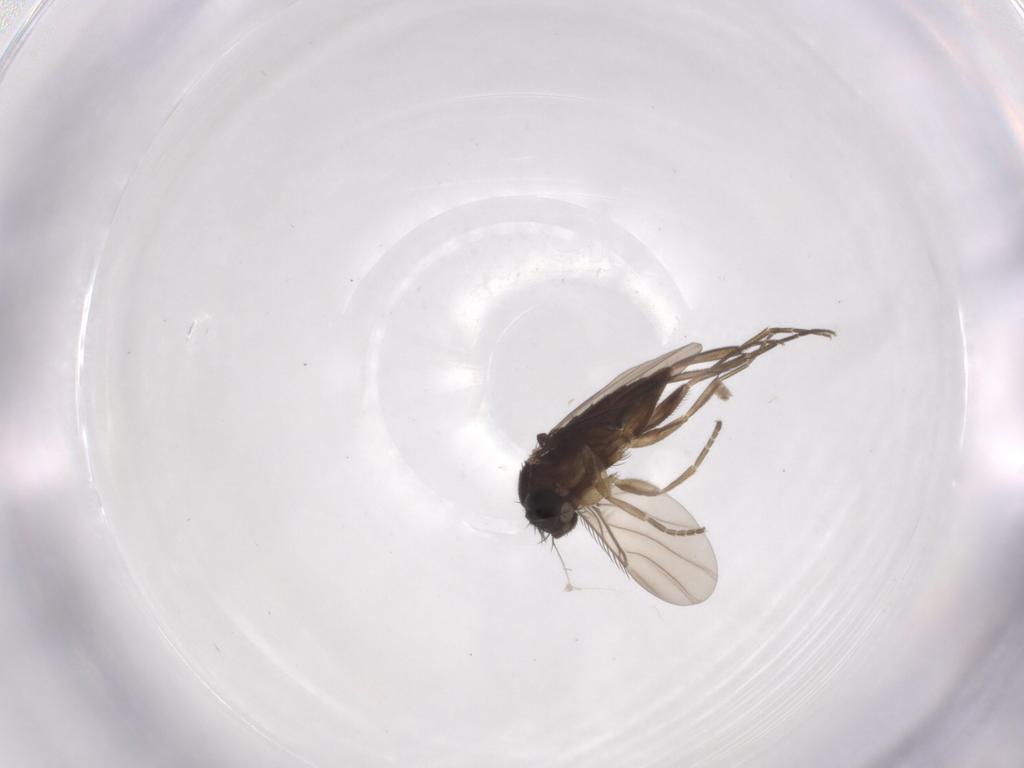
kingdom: Animalia
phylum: Arthropoda
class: Insecta
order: Diptera
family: Phoridae
